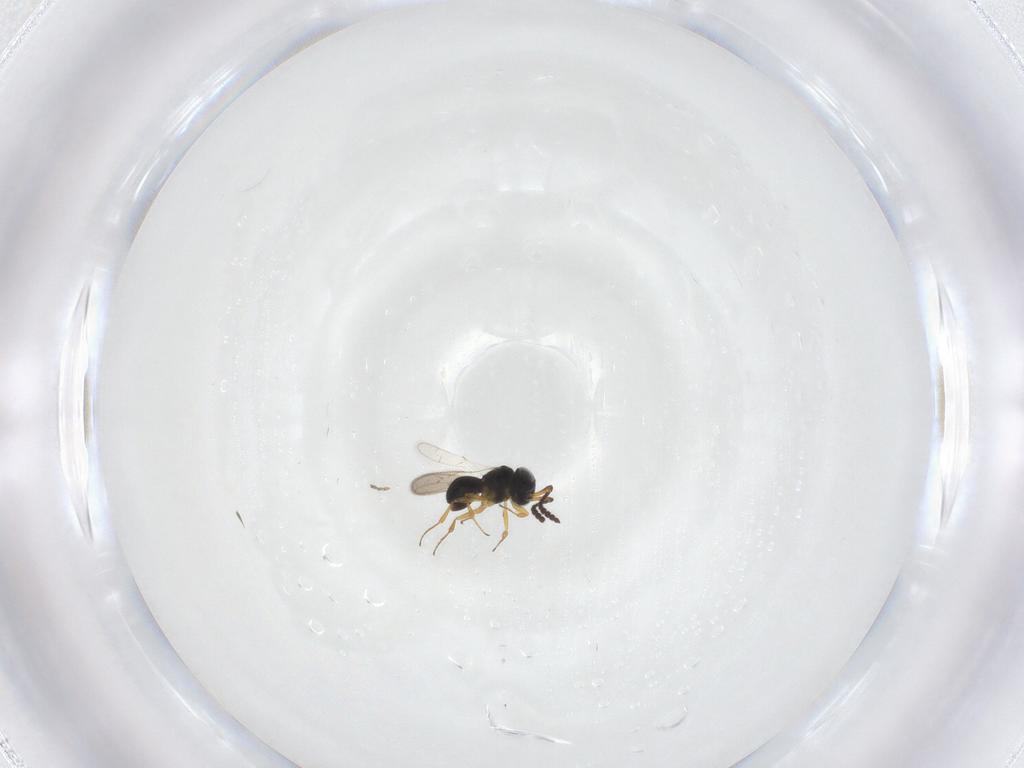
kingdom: Animalia
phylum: Arthropoda
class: Insecta
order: Hymenoptera
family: Scelionidae
